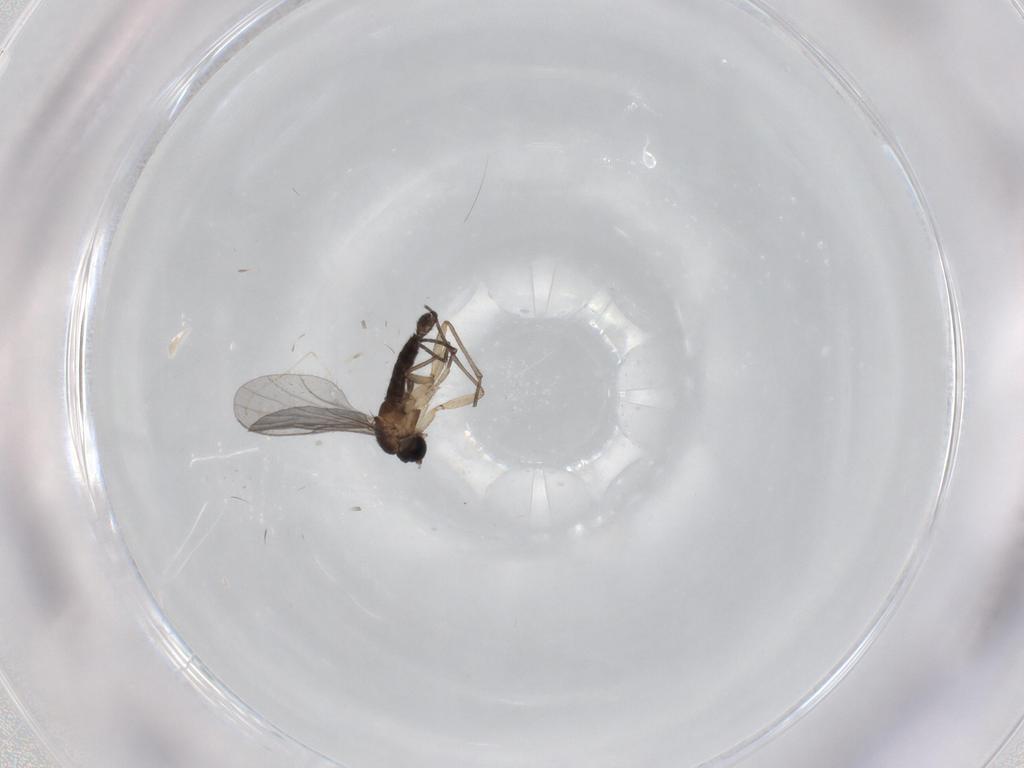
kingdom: Animalia
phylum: Arthropoda
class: Insecta
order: Diptera
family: Sciaridae
